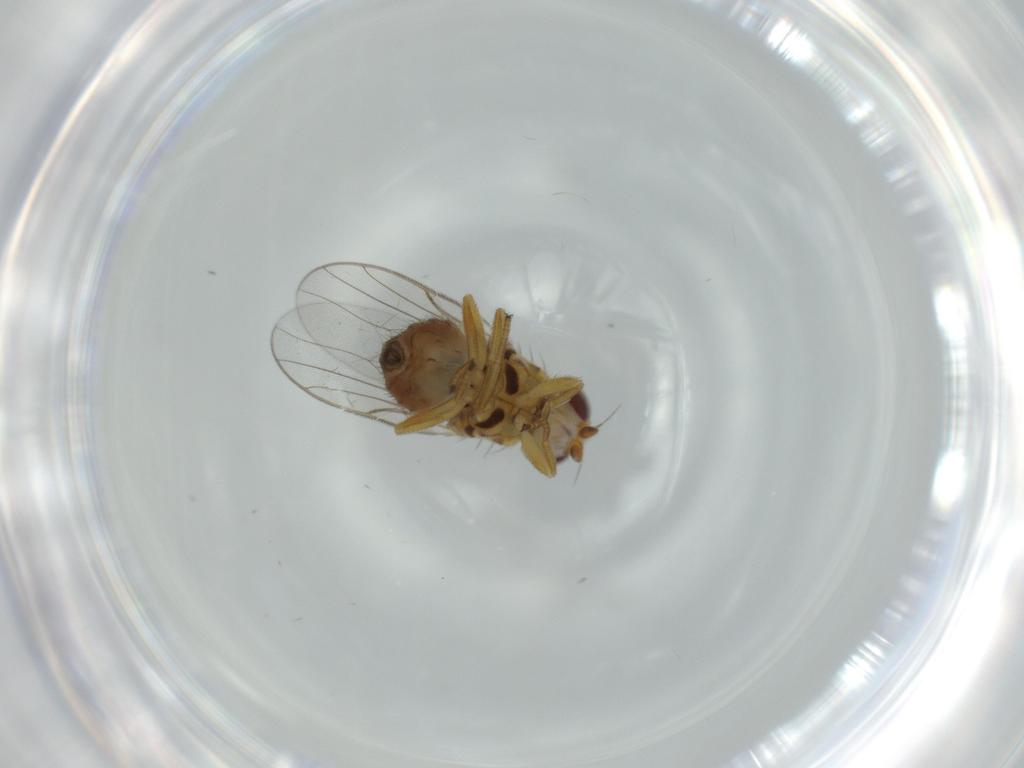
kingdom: Animalia
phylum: Arthropoda
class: Insecta
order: Diptera
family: Chloropidae
